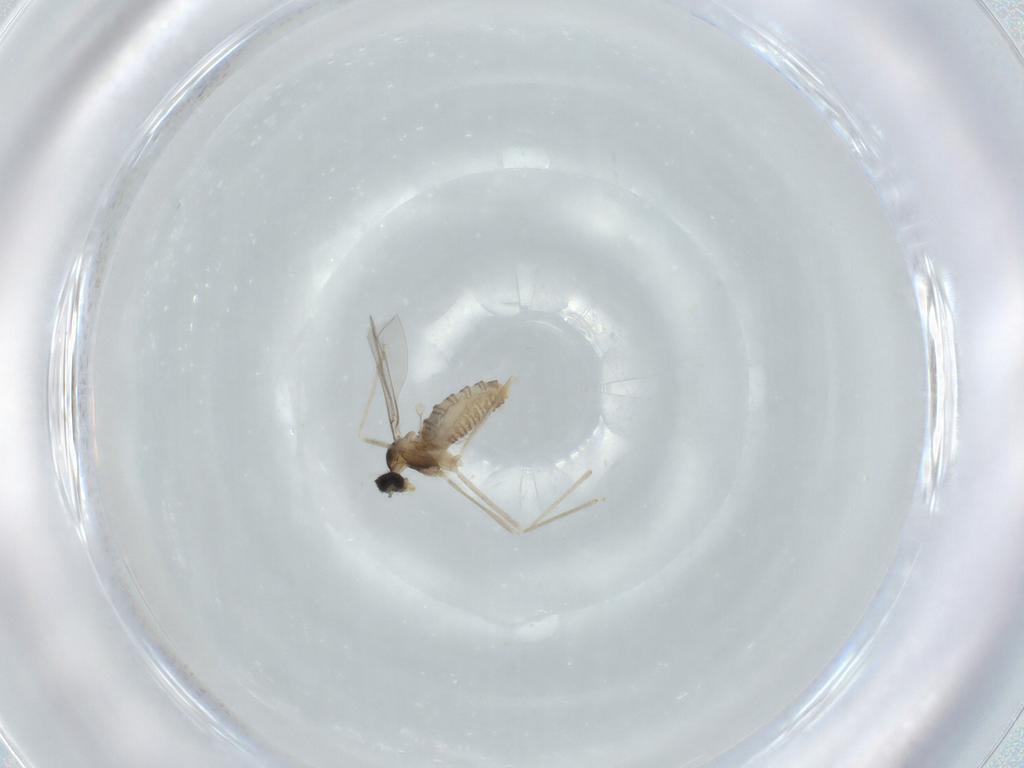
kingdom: Animalia
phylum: Arthropoda
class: Insecta
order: Diptera
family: Sciaridae
